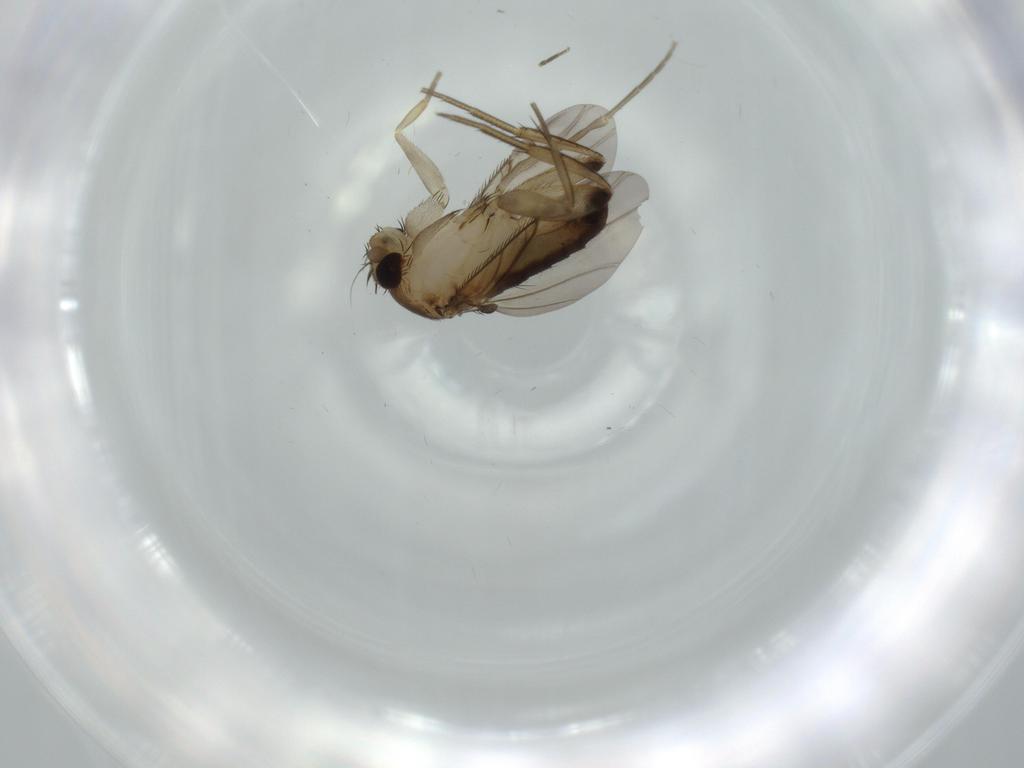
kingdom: Animalia
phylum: Arthropoda
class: Insecta
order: Diptera
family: Phoridae
